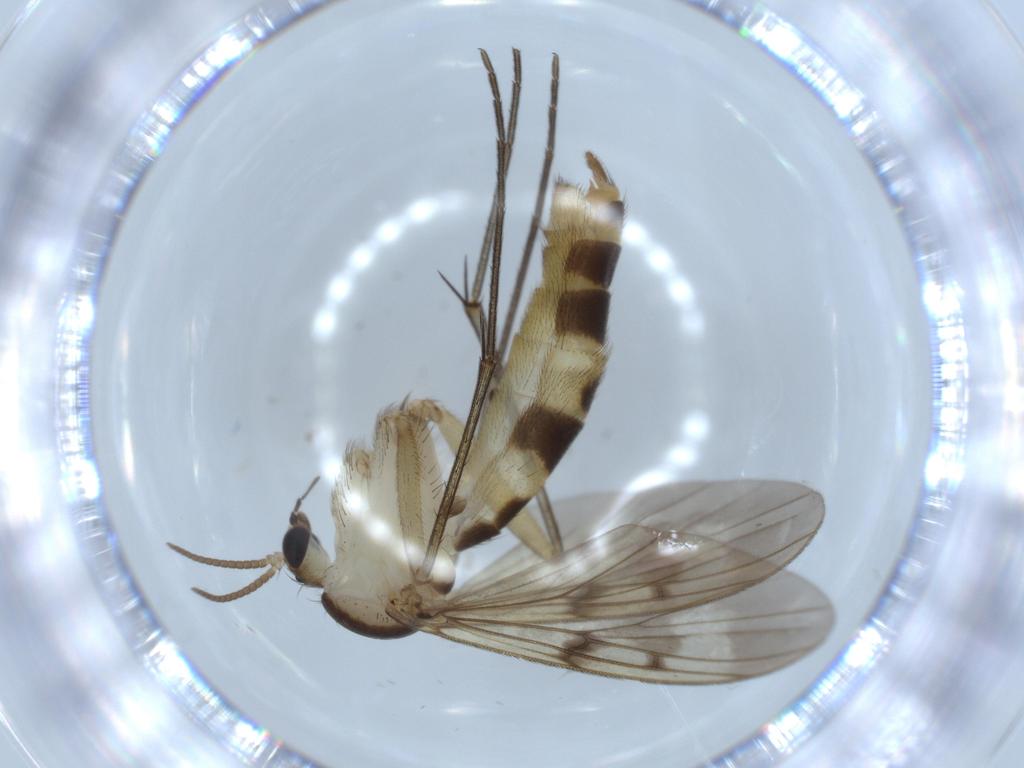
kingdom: Animalia
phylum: Arthropoda
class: Insecta
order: Diptera
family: Mycetophilidae
